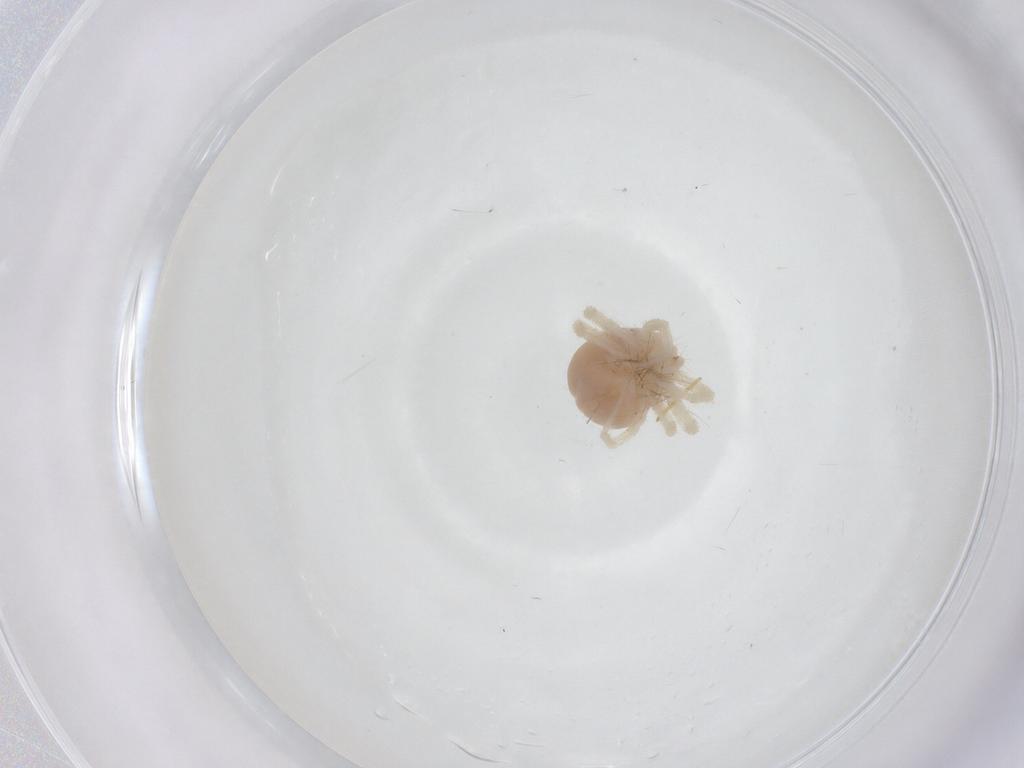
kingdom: Animalia
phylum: Arthropoda
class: Arachnida
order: Trombidiformes
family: Anystidae
